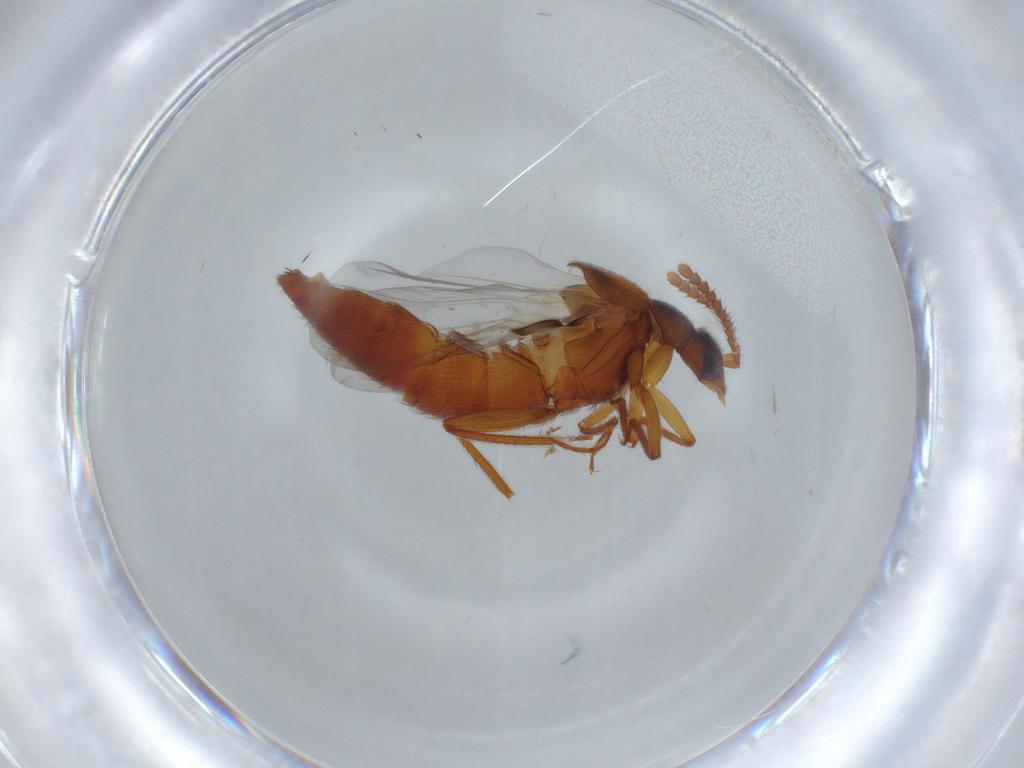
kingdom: Animalia
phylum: Arthropoda
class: Insecta
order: Coleoptera
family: Staphylinidae
